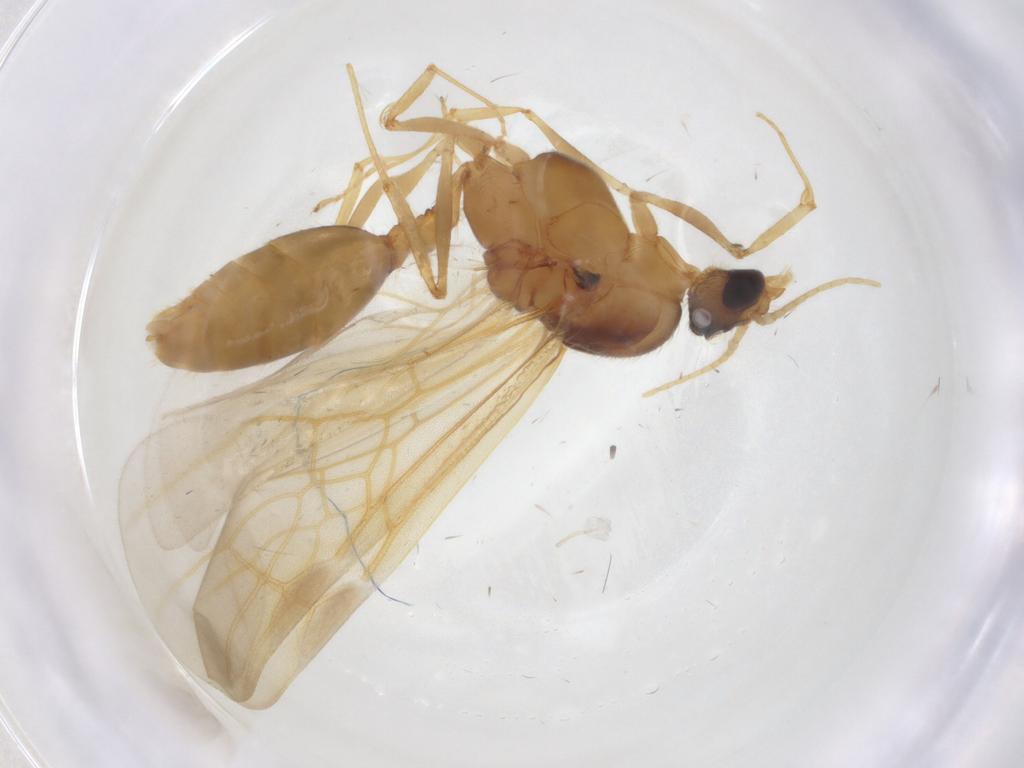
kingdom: Animalia
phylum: Arthropoda
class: Insecta
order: Hymenoptera
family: Formicidae
